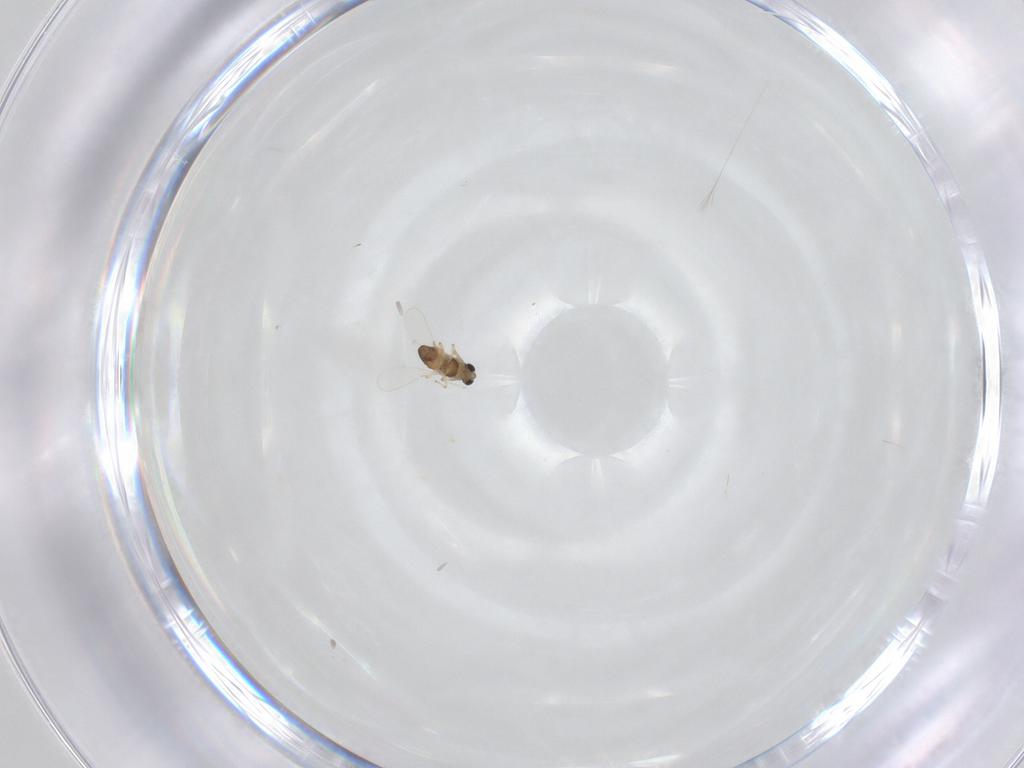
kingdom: Animalia
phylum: Arthropoda
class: Insecta
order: Diptera
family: Chironomidae
